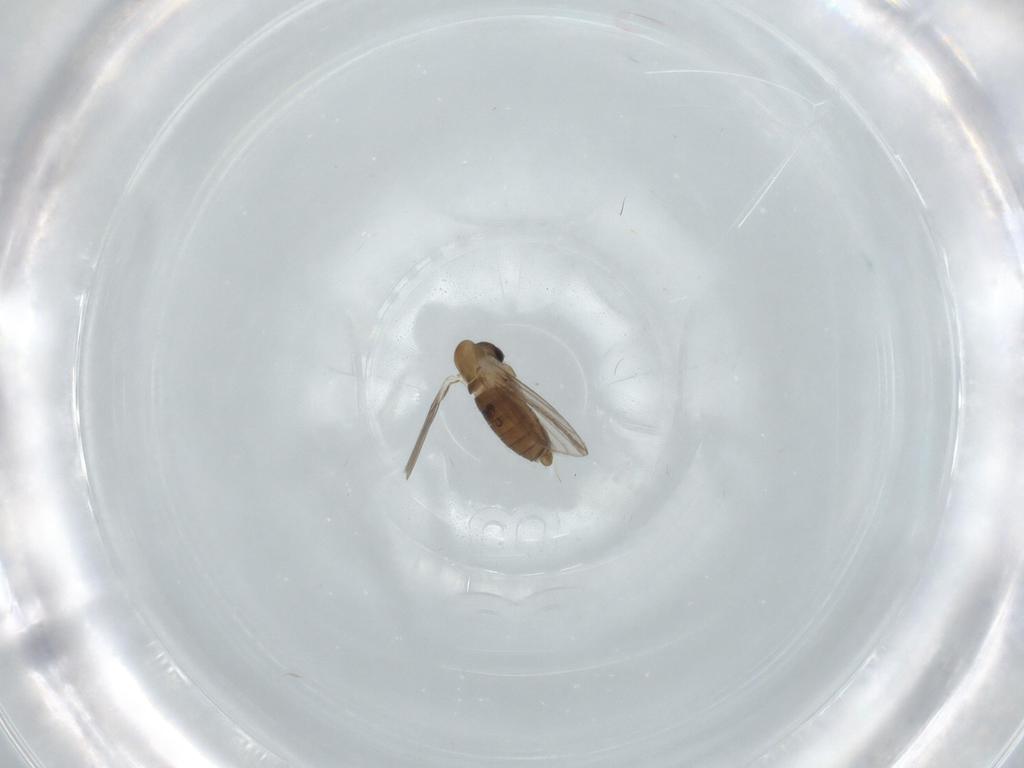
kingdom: Animalia
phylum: Arthropoda
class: Insecta
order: Diptera
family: Psychodidae
